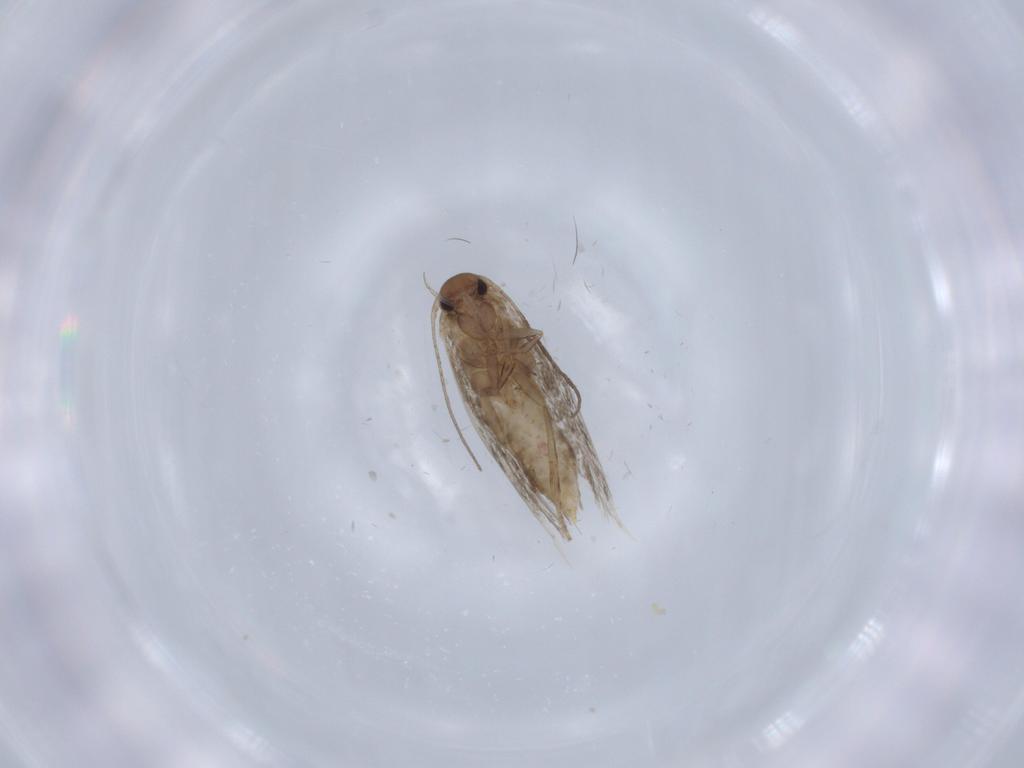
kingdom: Animalia
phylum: Arthropoda
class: Insecta
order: Lepidoptera
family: Elachistidae
